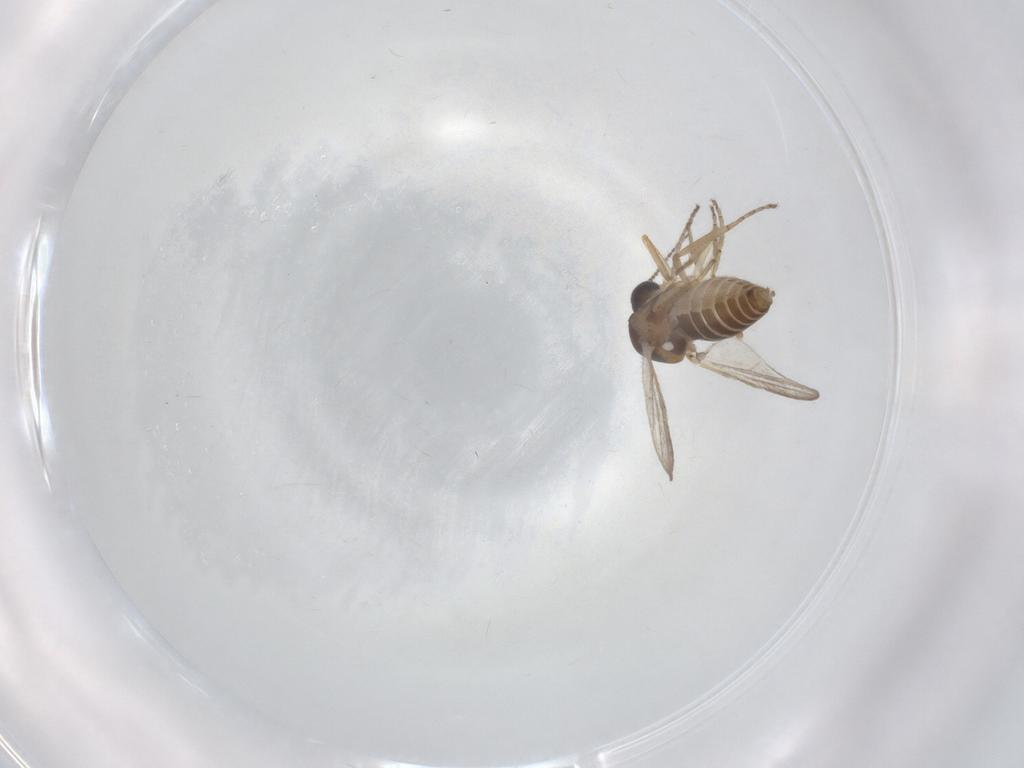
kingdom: Animalia
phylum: Arthropoda
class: Insecta
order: Diptera
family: Ceratopogonidae
